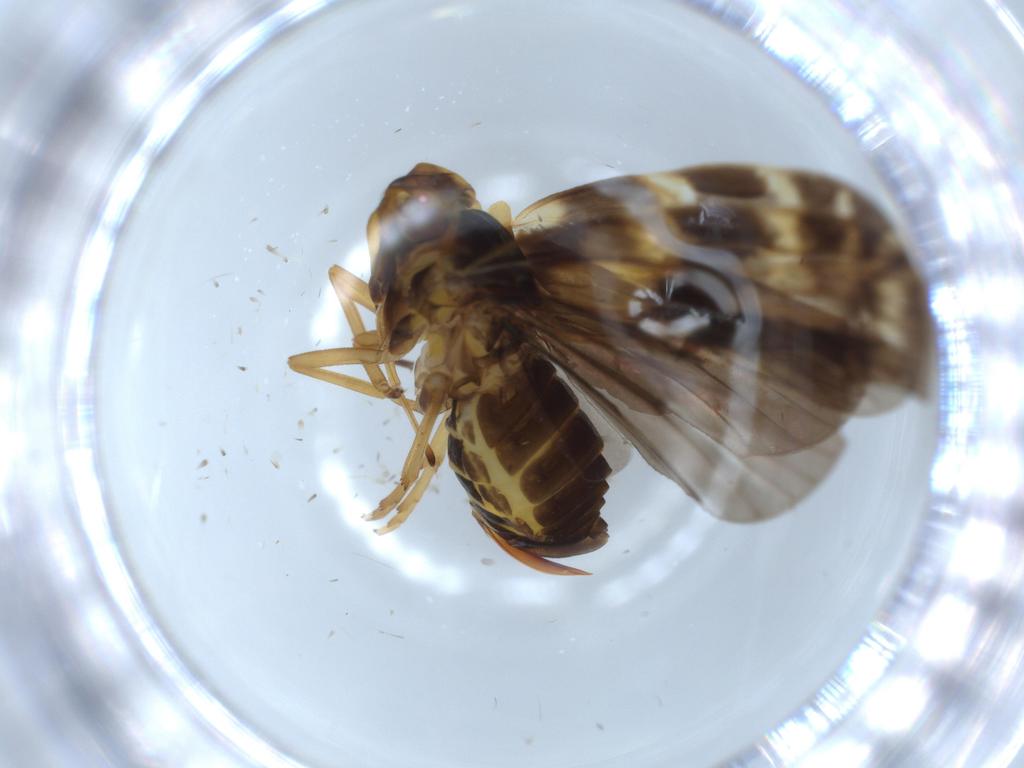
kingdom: Animalia
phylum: Arthropoda
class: Insecta
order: Hemiptera
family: Cixiidae
